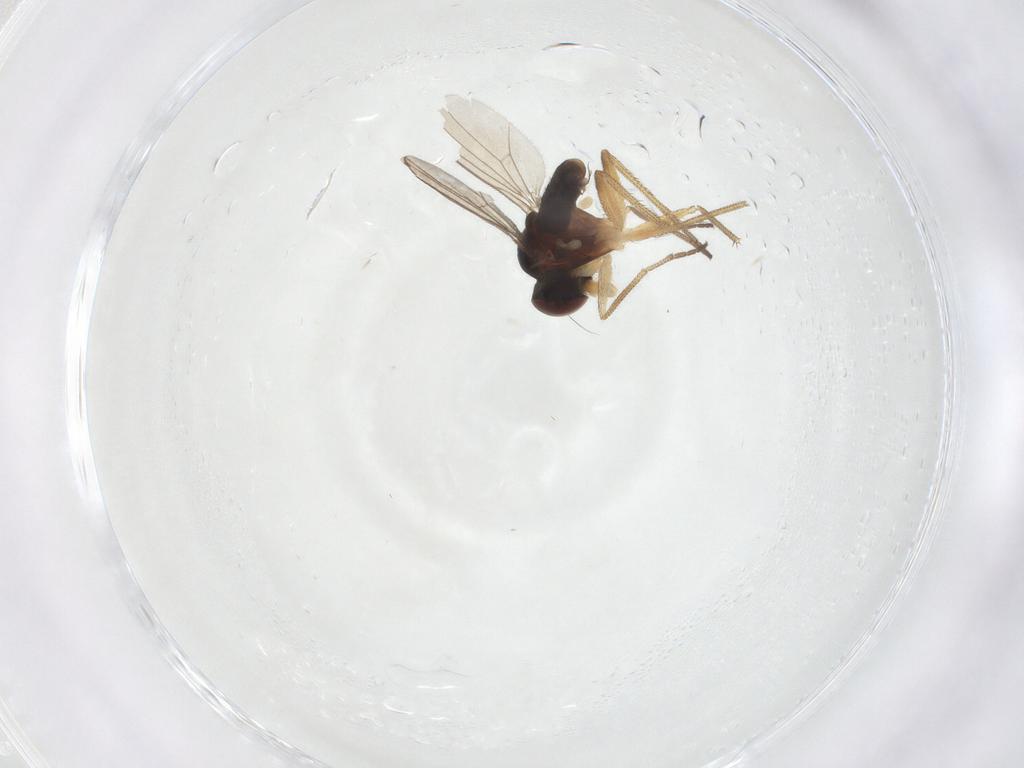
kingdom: Animalia
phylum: Arthropoda
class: Insecta
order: Diptera
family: Dolichopodidae
